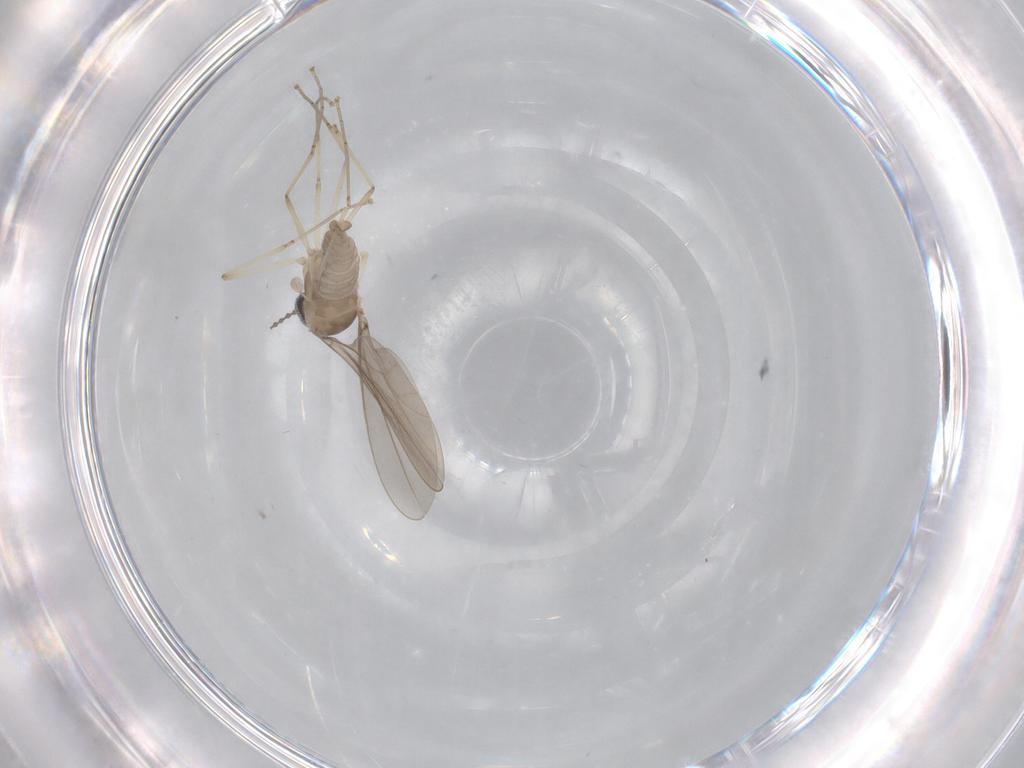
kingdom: Animalia
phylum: Arthropoda
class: Insecta
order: Diptera
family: Cecidomyiidae
